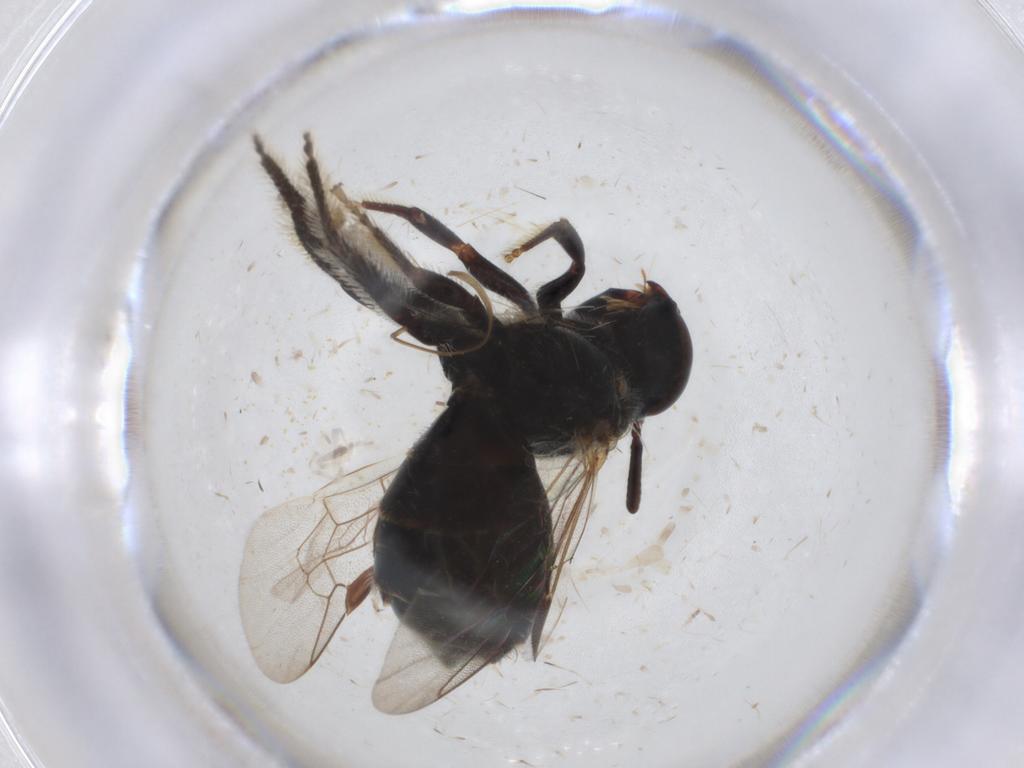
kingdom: Animalia
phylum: Arthropoda
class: Insecta
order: Hymenoptera
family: Formicidae
